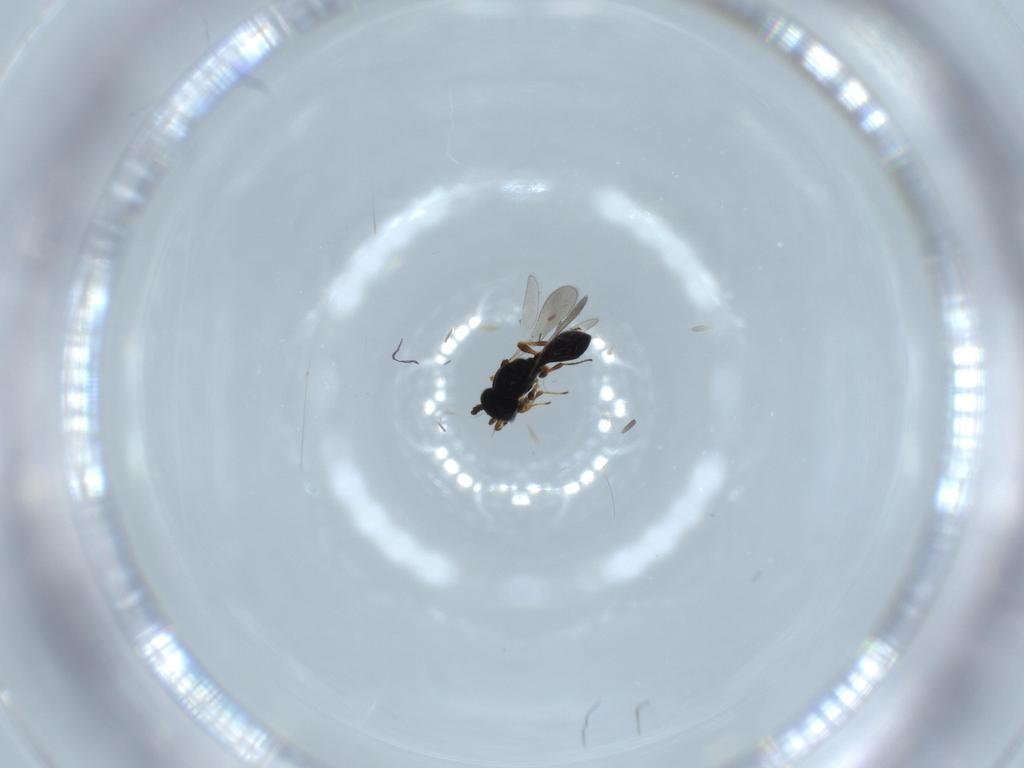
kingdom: Animalia
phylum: Arthropoda
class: Insecta
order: Hymenoptera
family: Platygastridae
